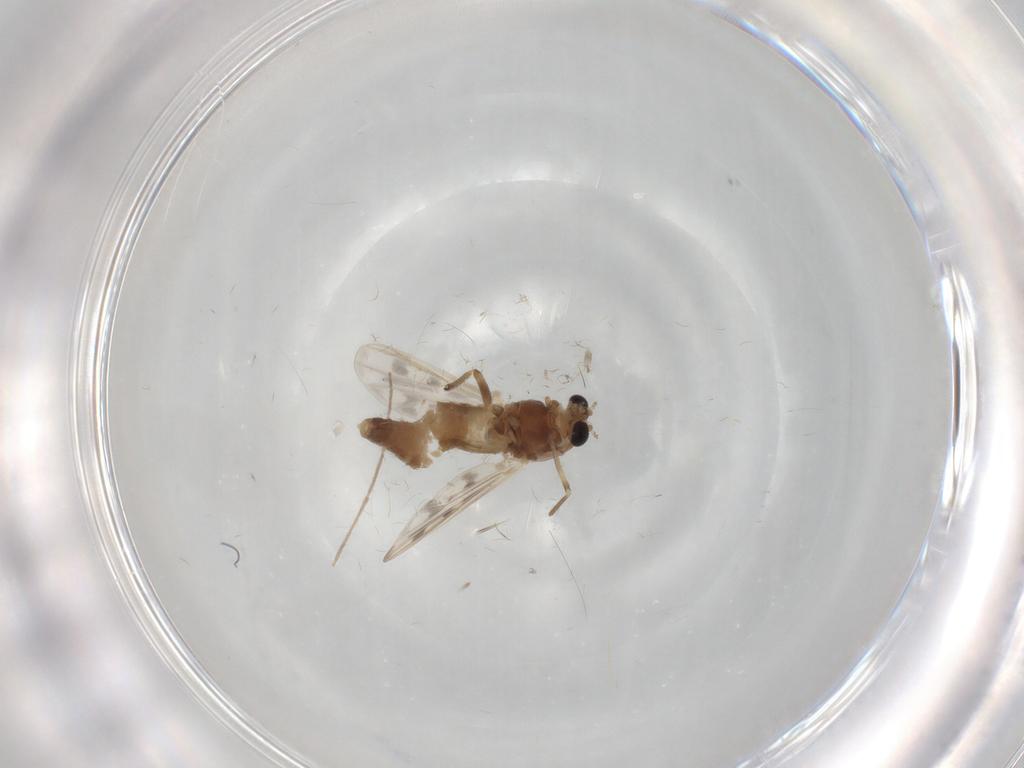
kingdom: Animalia
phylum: Arthropoda
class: Insecta
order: Diptera
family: Chironomidae
